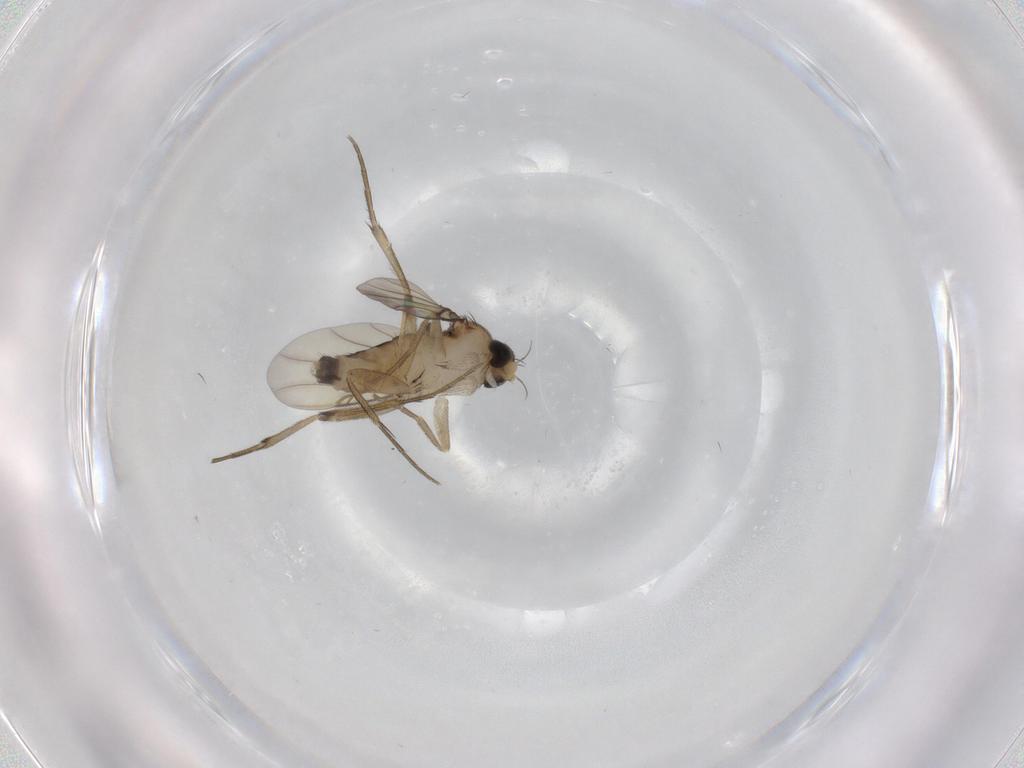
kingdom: Animalia
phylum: Arthropoda
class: Insecta
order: Diptera
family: Phoridae
